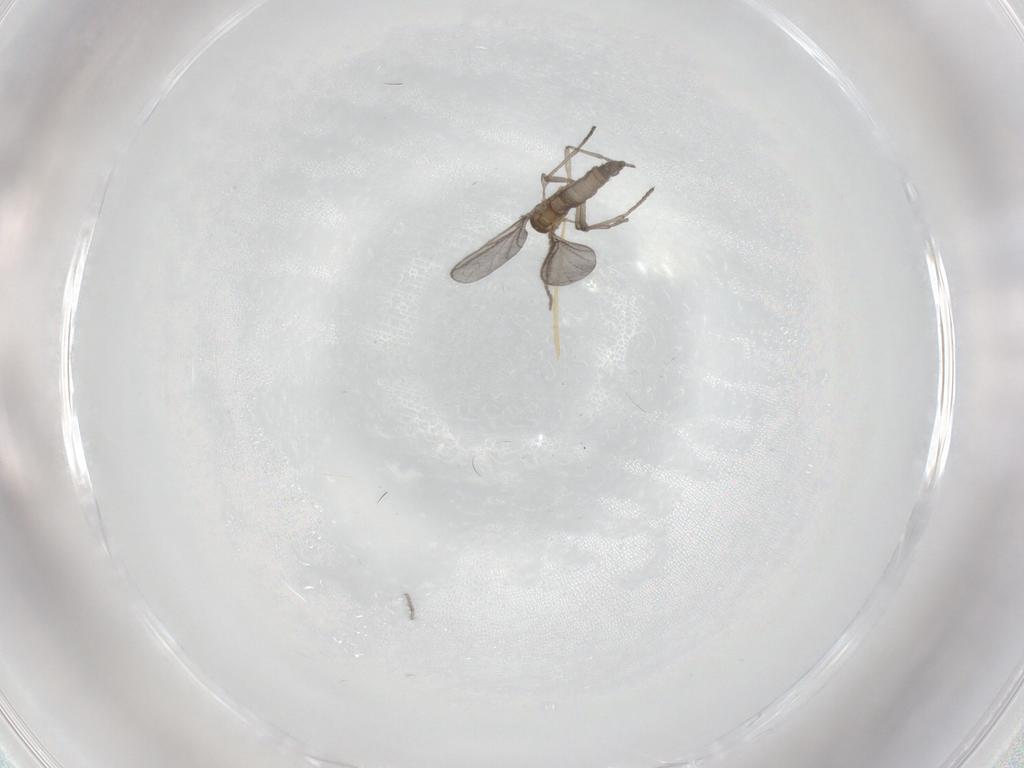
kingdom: Animalia
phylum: Arthropoda
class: Insecta
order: Diptera
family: Sciaridae
